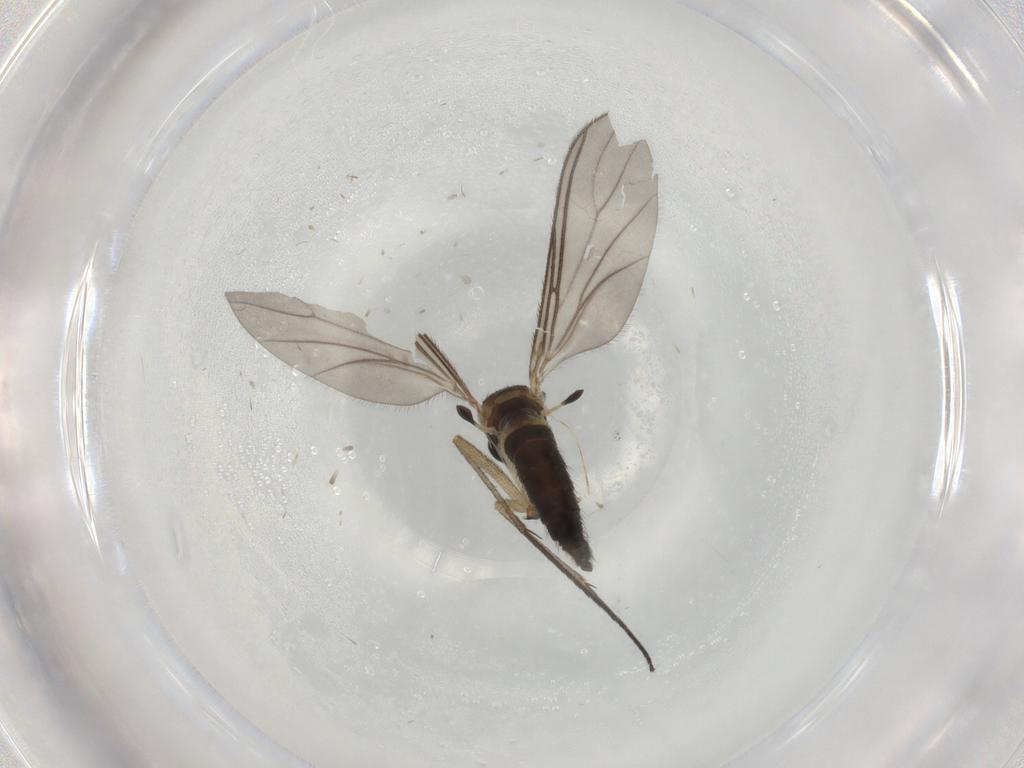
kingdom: Animalia
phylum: Arthropoda
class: Insecta
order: Diptera
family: Sciaridae
